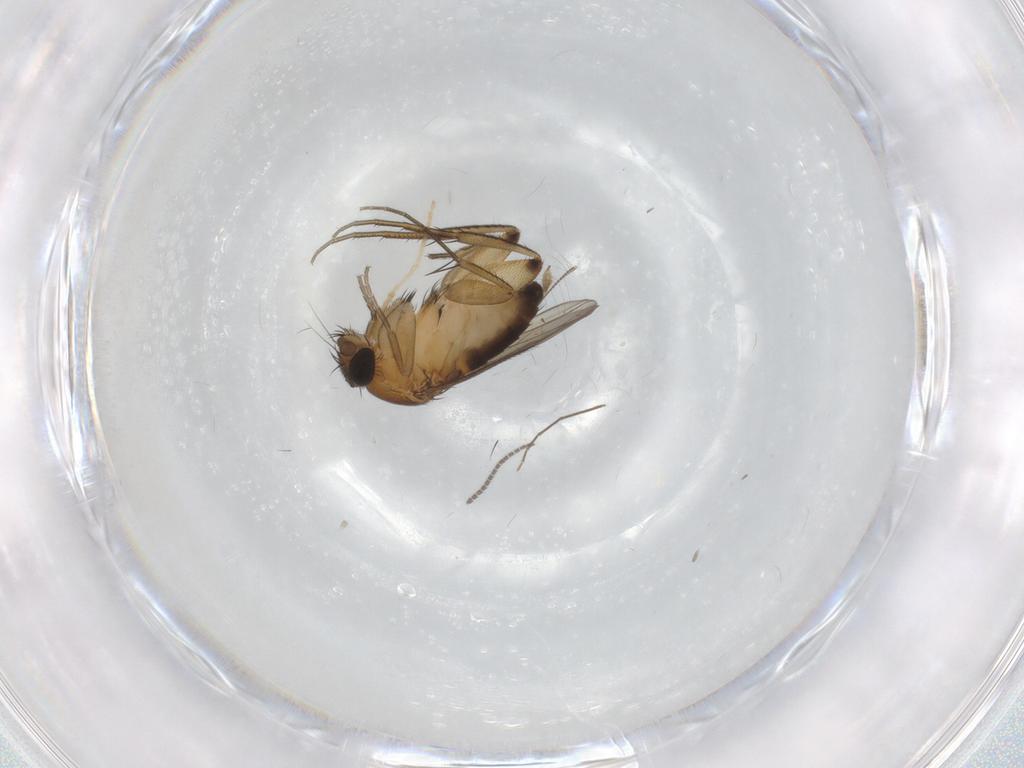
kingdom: Animalia
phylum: Arthropoda
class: Insecta
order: Diptera
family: Phoridae
